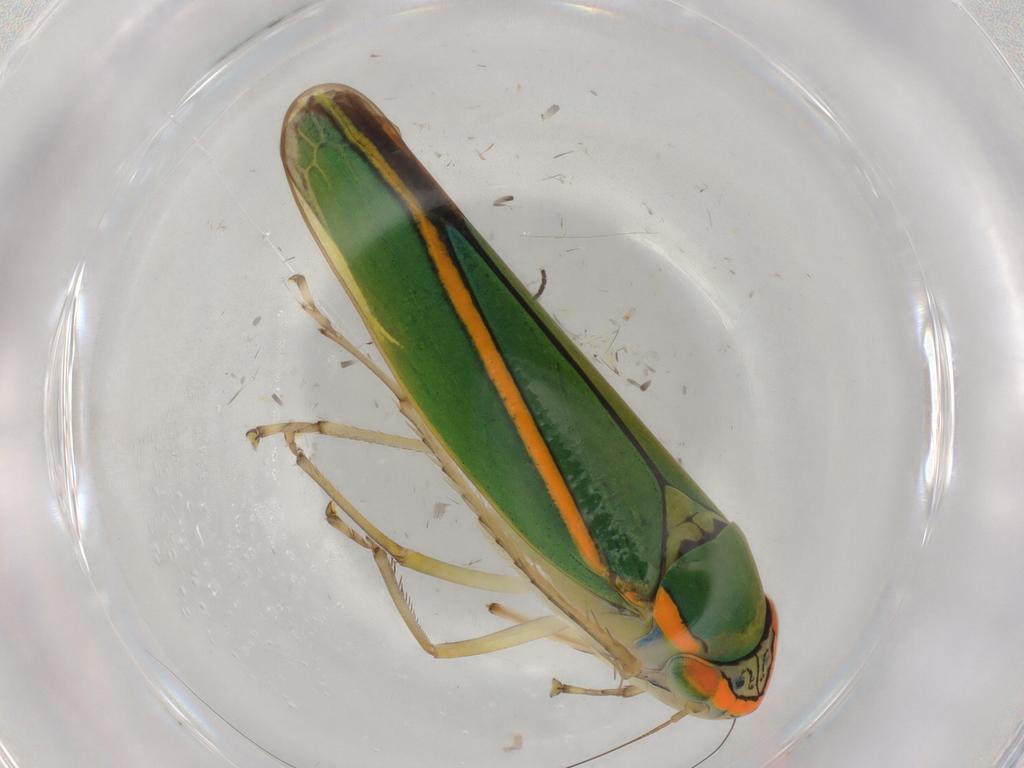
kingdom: Animalia
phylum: Arthropoda
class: Insecta
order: Hemiptera
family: Cicadellidae
